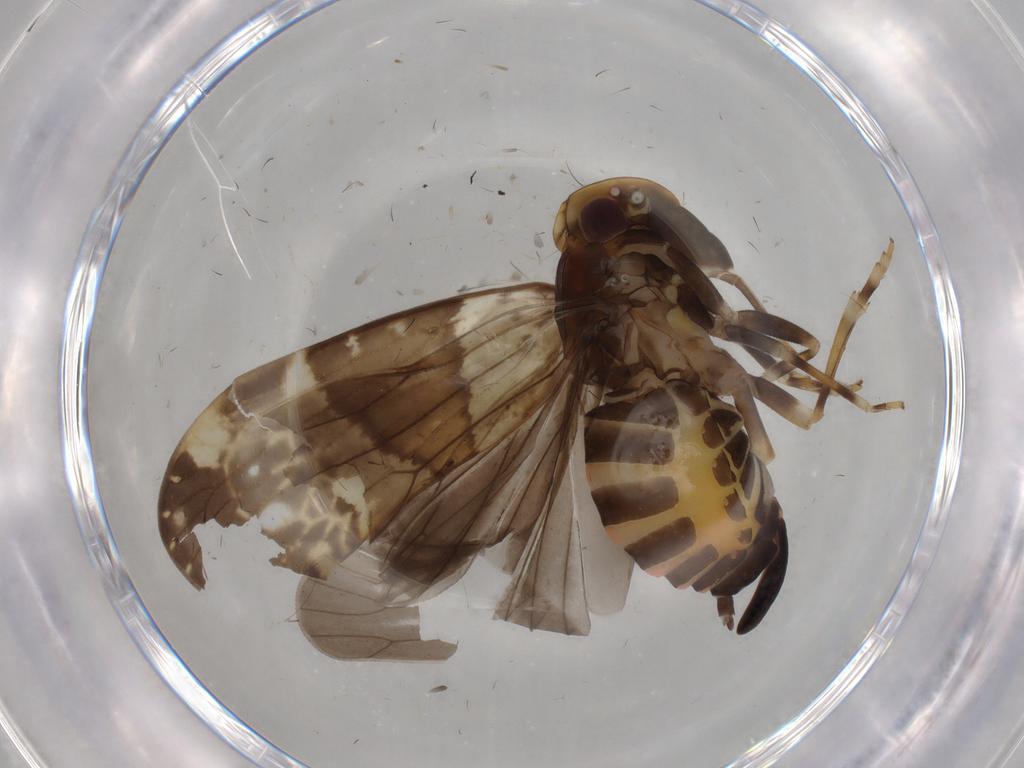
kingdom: Animalia
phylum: Arthropoda
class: Insecta
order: Hemiptera
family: Cixiidae
